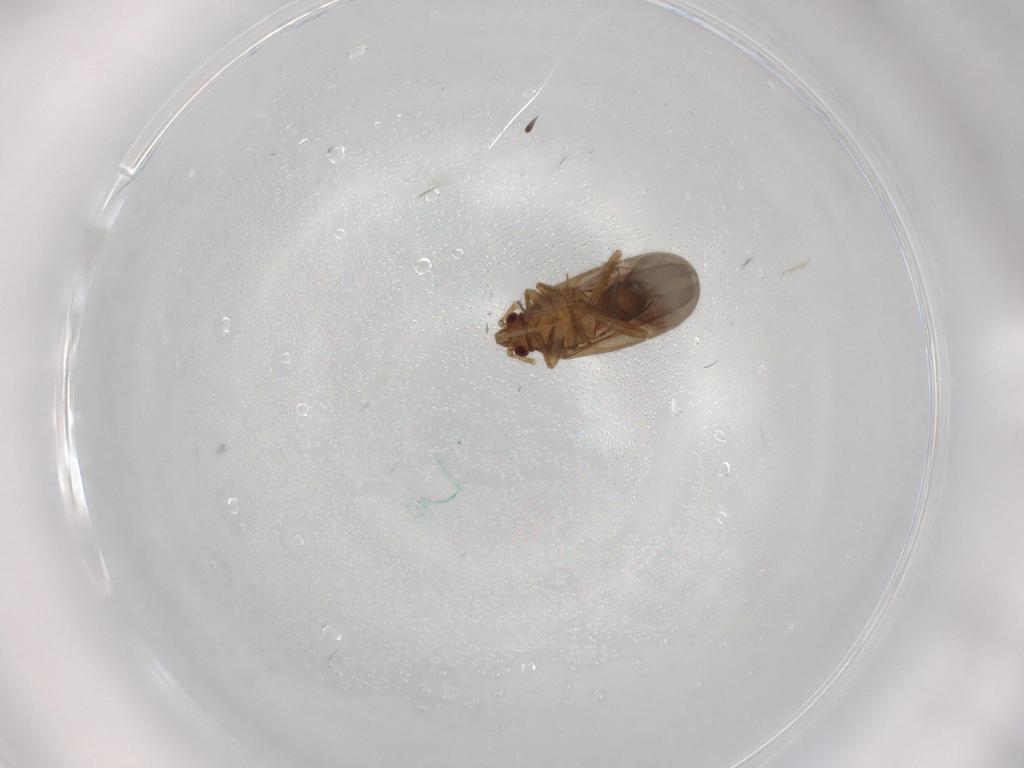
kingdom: Animalia
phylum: Arthropoda
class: Insecta
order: Hemiptera
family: Ceratocombidae
